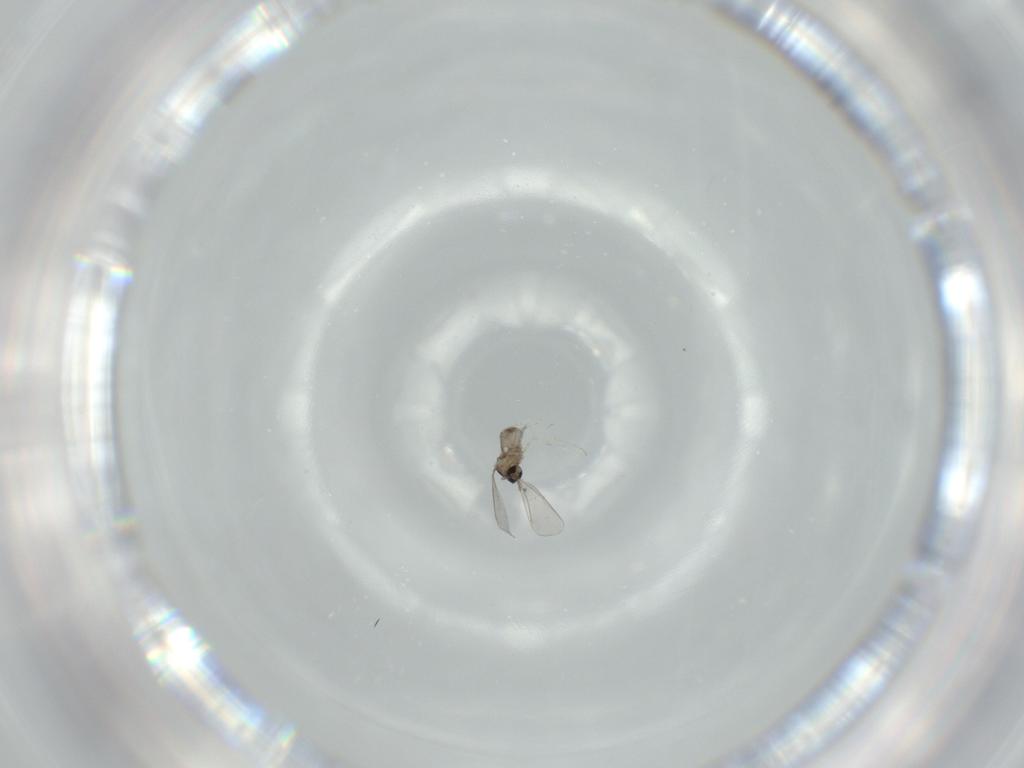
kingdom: Animalia
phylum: Arthropoda
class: Insecta
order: Diptera
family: Cecidomyiidae
